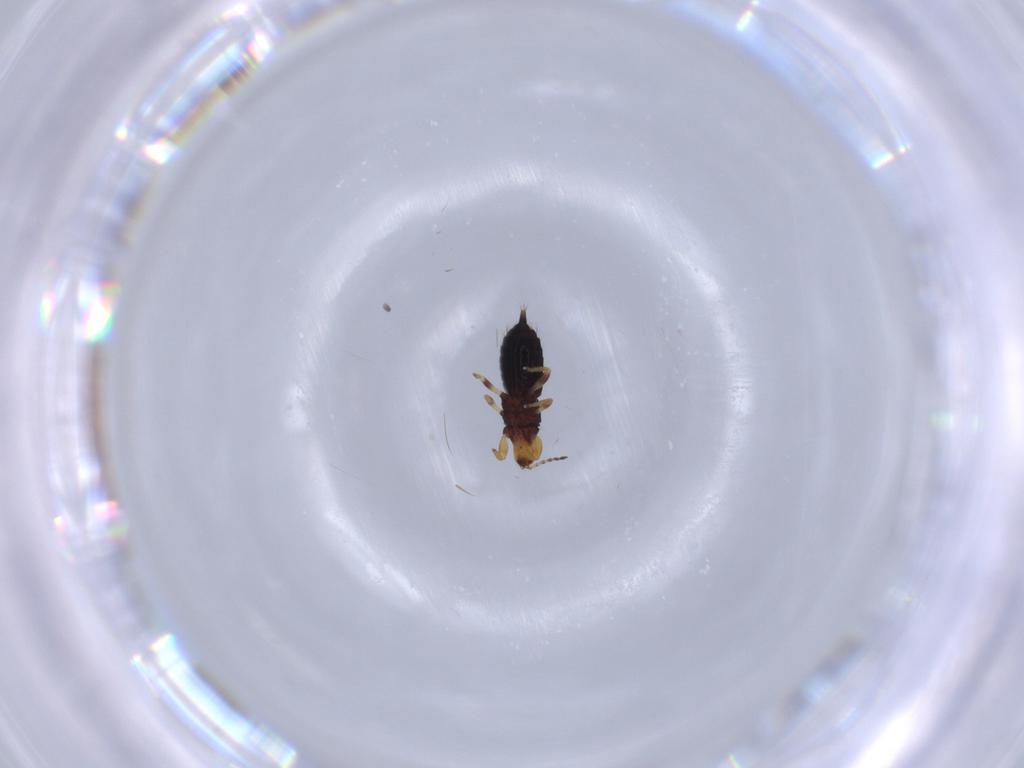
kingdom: Animalia
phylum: Arthropoda
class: Insecta
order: Thysanoptera
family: Phlaeothripidae
